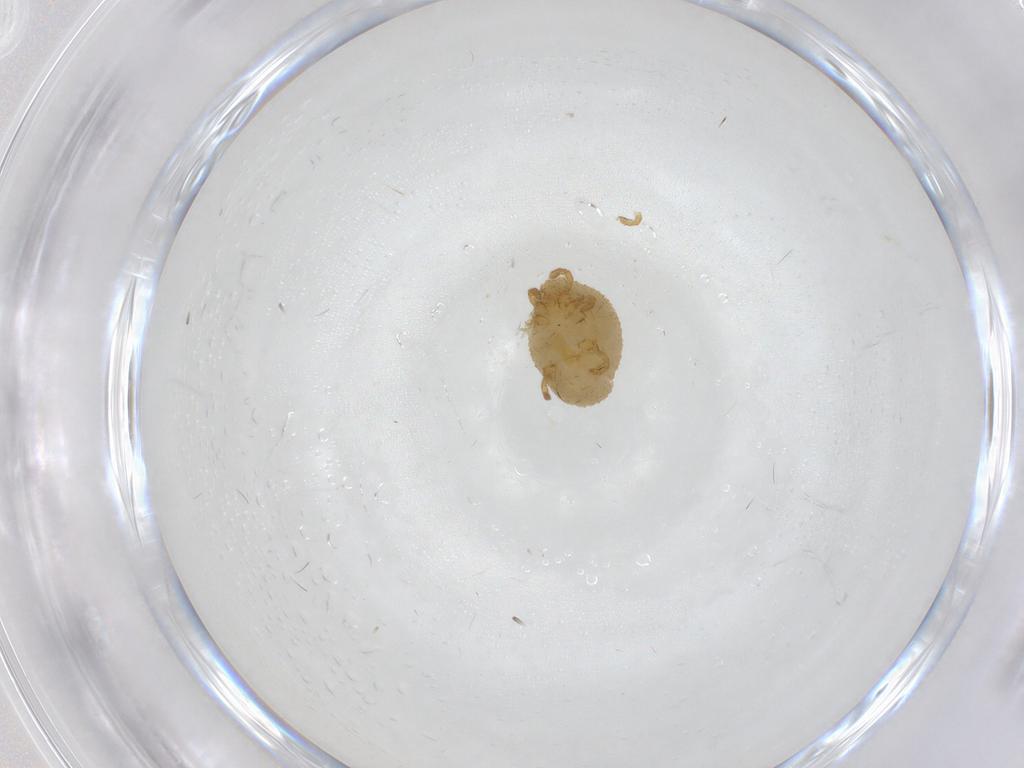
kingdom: Animalia
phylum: Arthropoda
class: Arachnida
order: Trombidiformes
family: Calyptostomatidae
